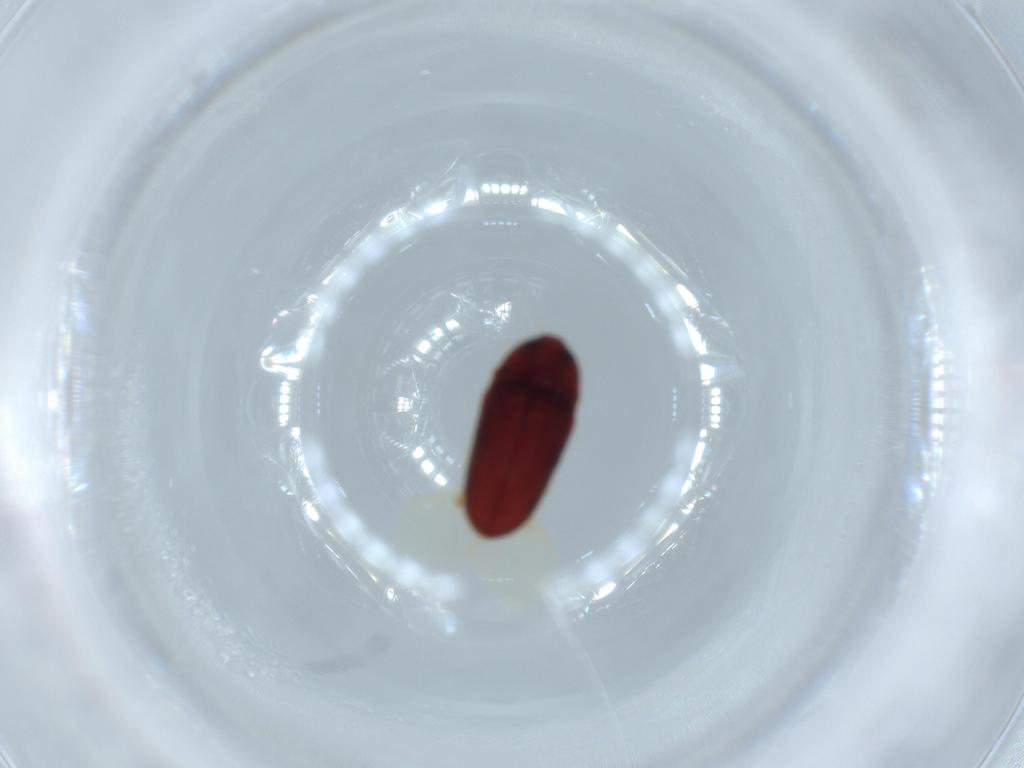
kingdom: Animalia
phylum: Arthropoda
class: Insecta
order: Coleoptera
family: Throscidae
